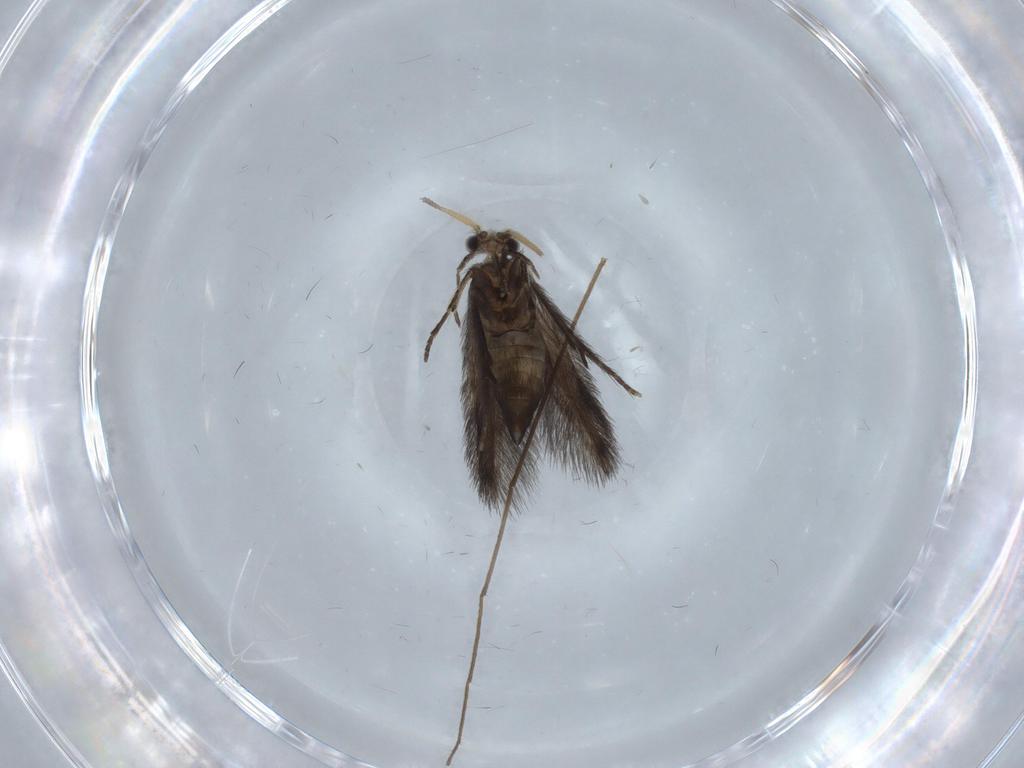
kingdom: Animalia
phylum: Arthropoda
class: Insecta
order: Trichoptera
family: Hydroptilidae
